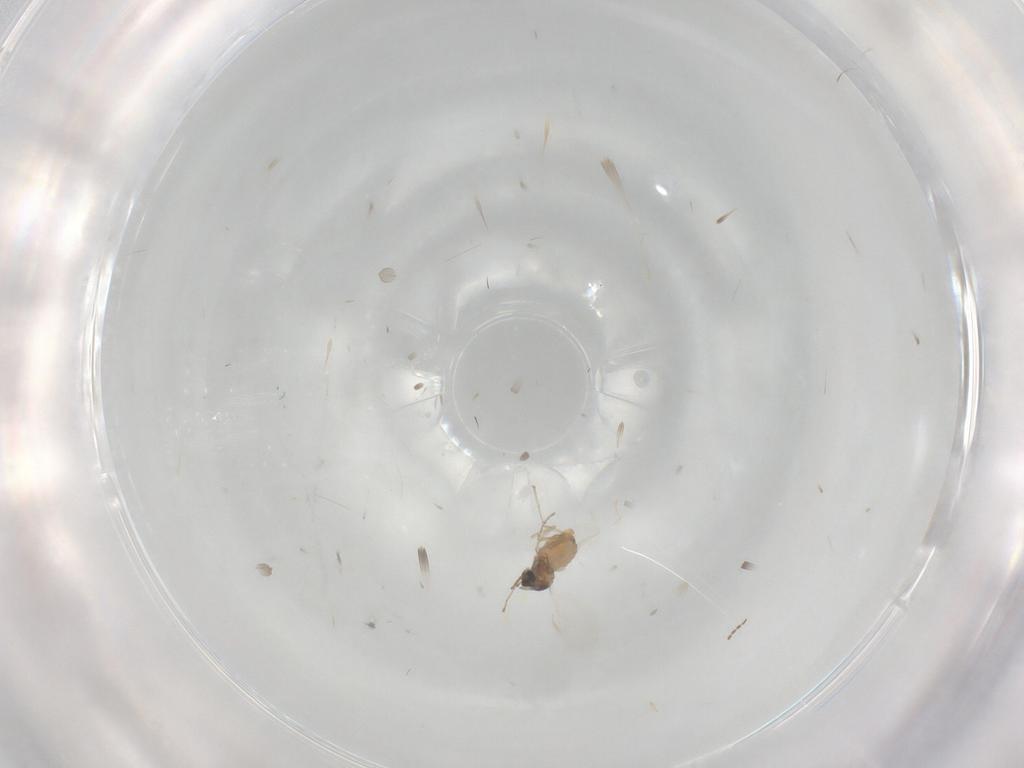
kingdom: Animalia
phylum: Arthropoda
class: Insecta
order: Diptera
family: Cecidomyiidae
